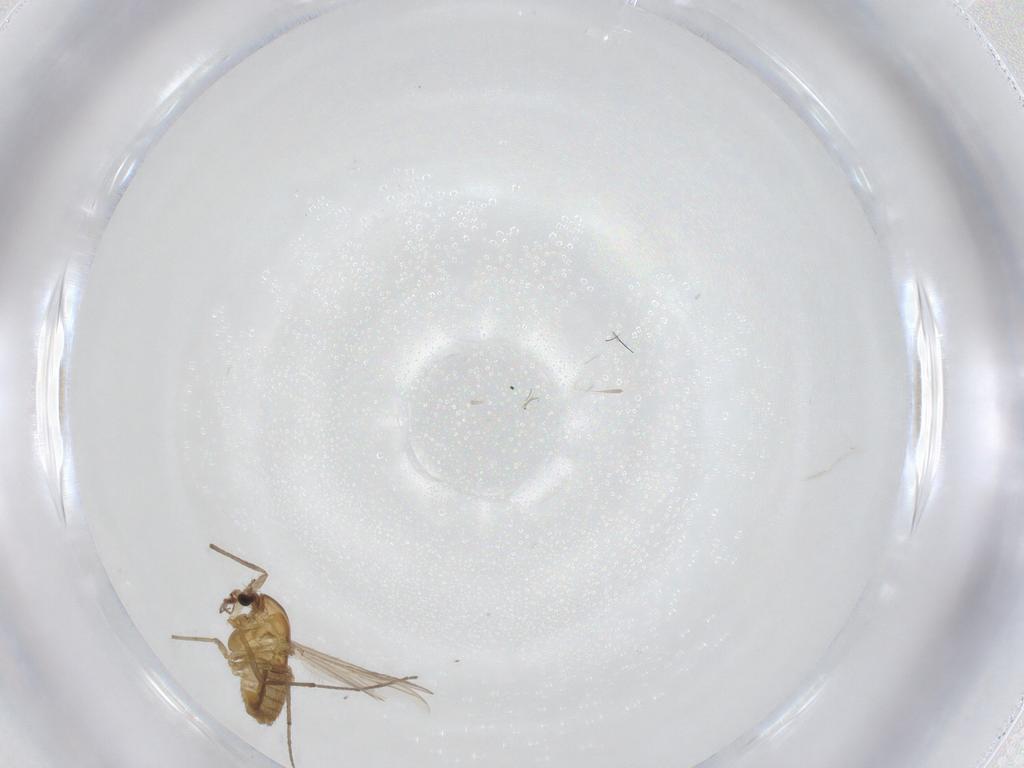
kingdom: Animalia
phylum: Arthropoda
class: Insecta
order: Diptera
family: Chironomidae
